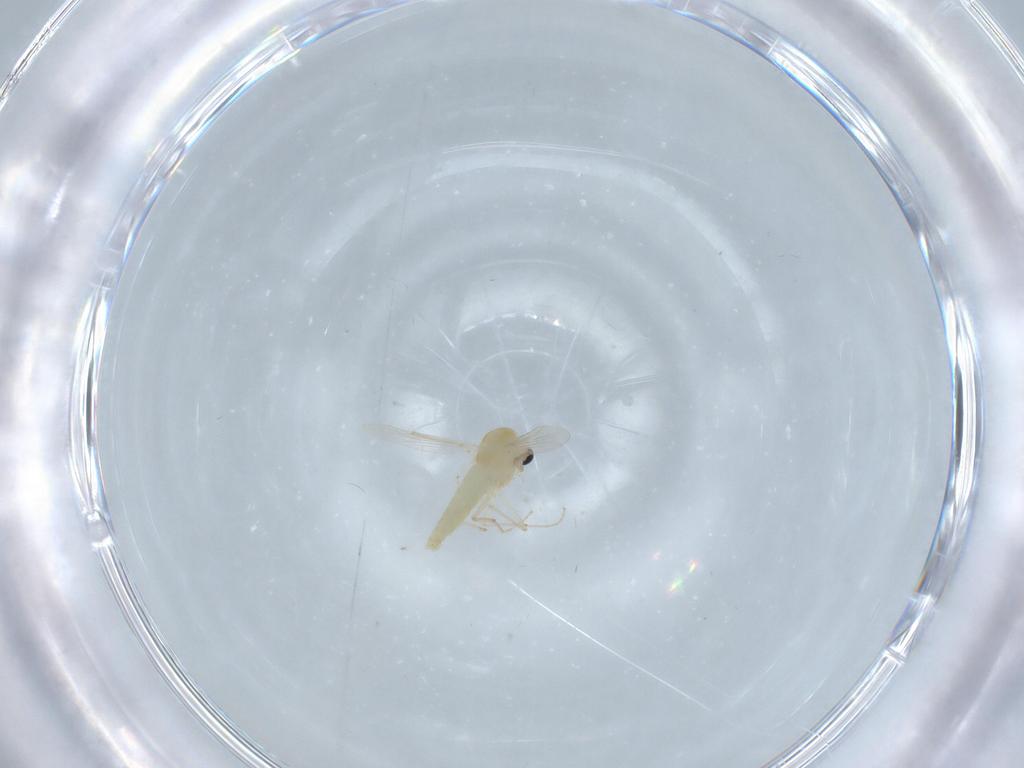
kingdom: Animalia
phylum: Arthropoda
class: Insecta
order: Diptera
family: Chironomidae
